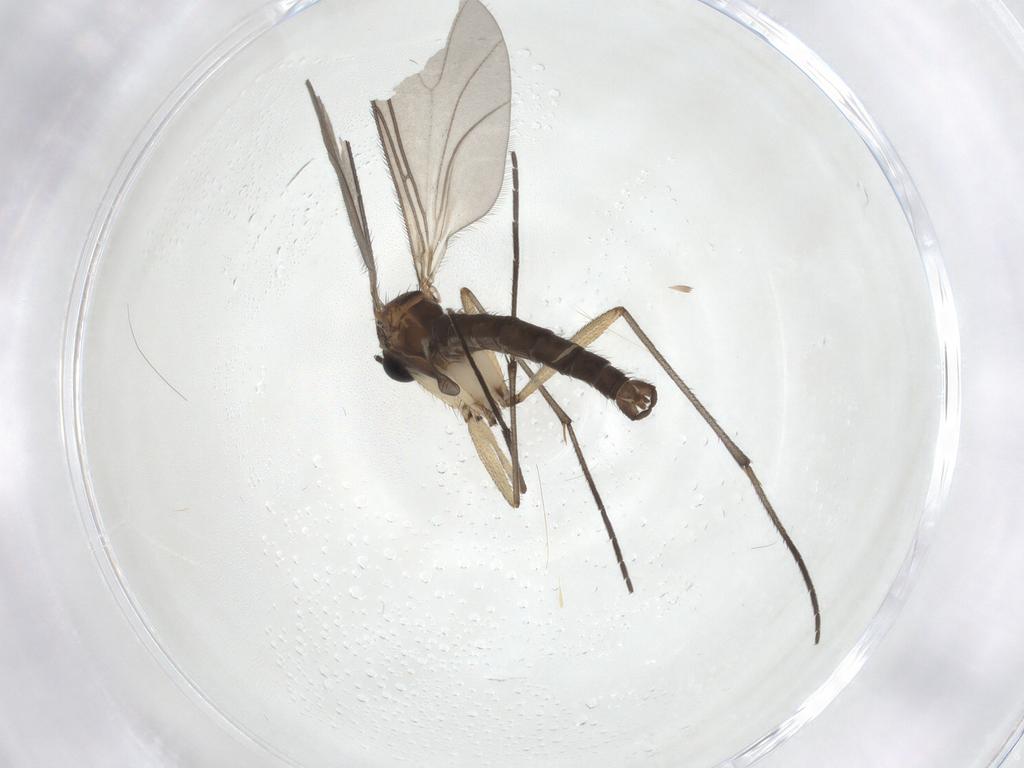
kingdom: Animalia
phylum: Arthropoda
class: Insecta
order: Diptera
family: Sciaridae
